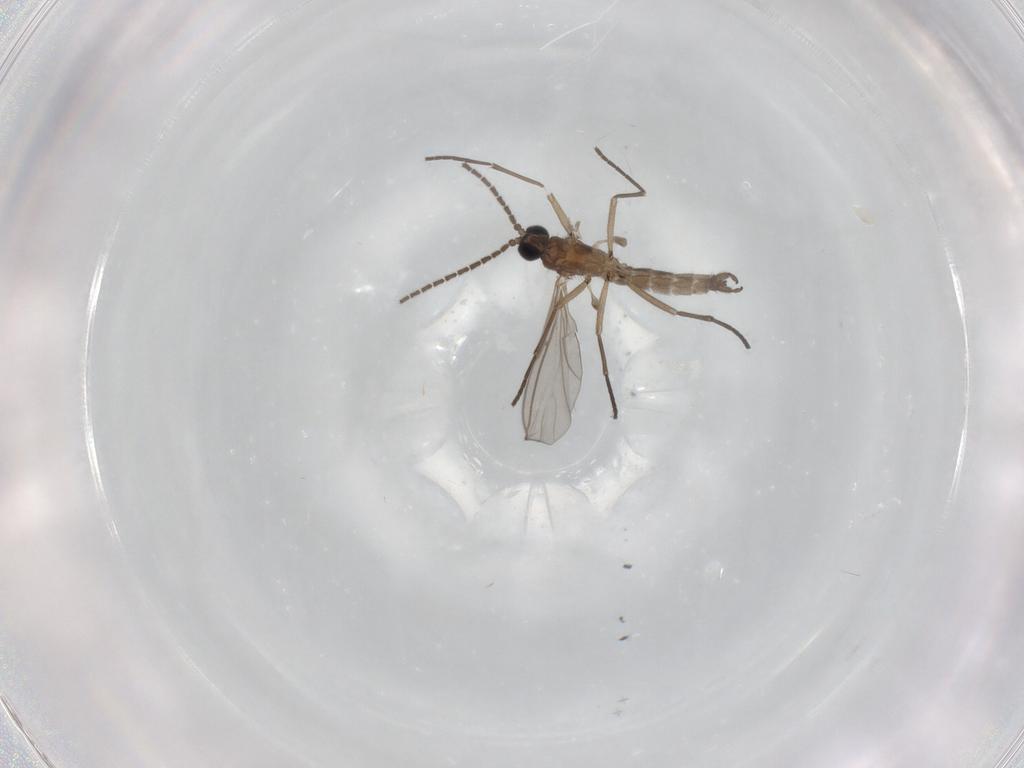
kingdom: Animalia
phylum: Arthropoda
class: Insecta
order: Diptera
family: Sciaridae
